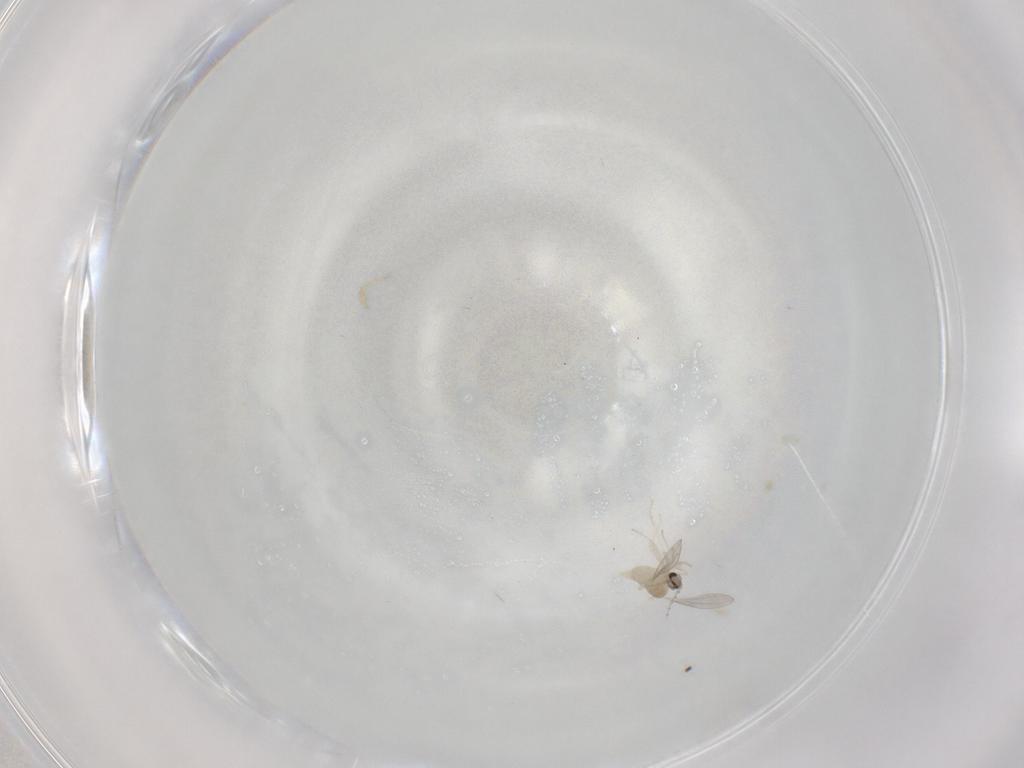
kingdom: Animalia
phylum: Arthropoda
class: Insecta
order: Diptera
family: Cecidomyiidae
